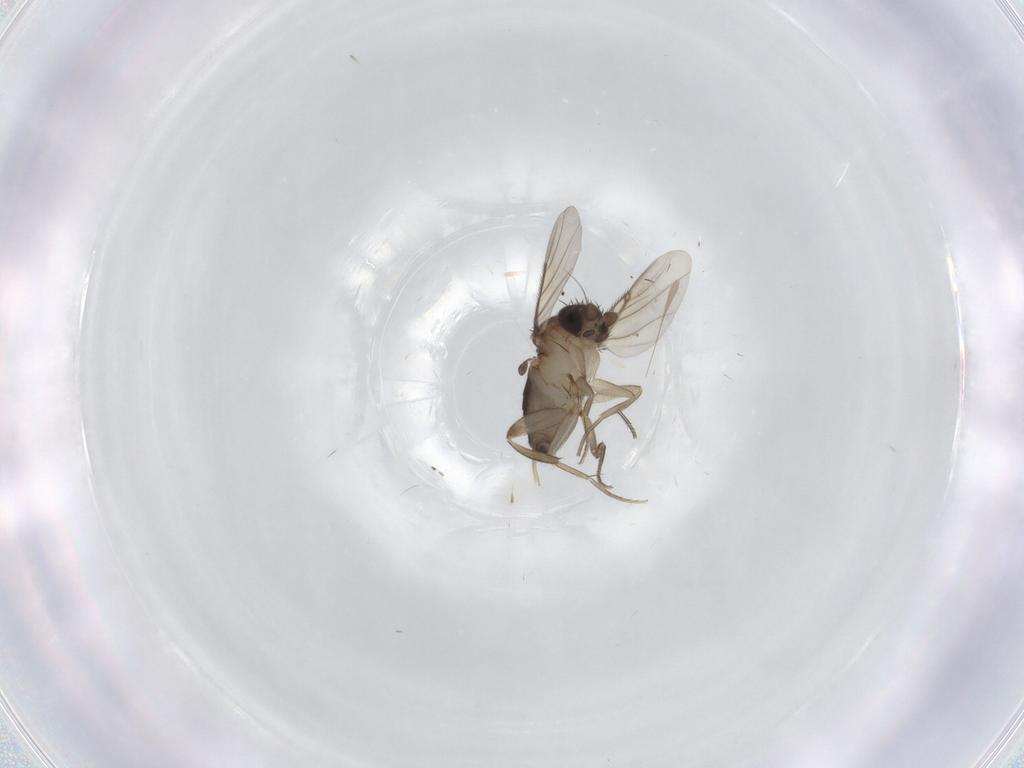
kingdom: Animalia
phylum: Arthropoda
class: Insecta
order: Diptera
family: Phoridae
